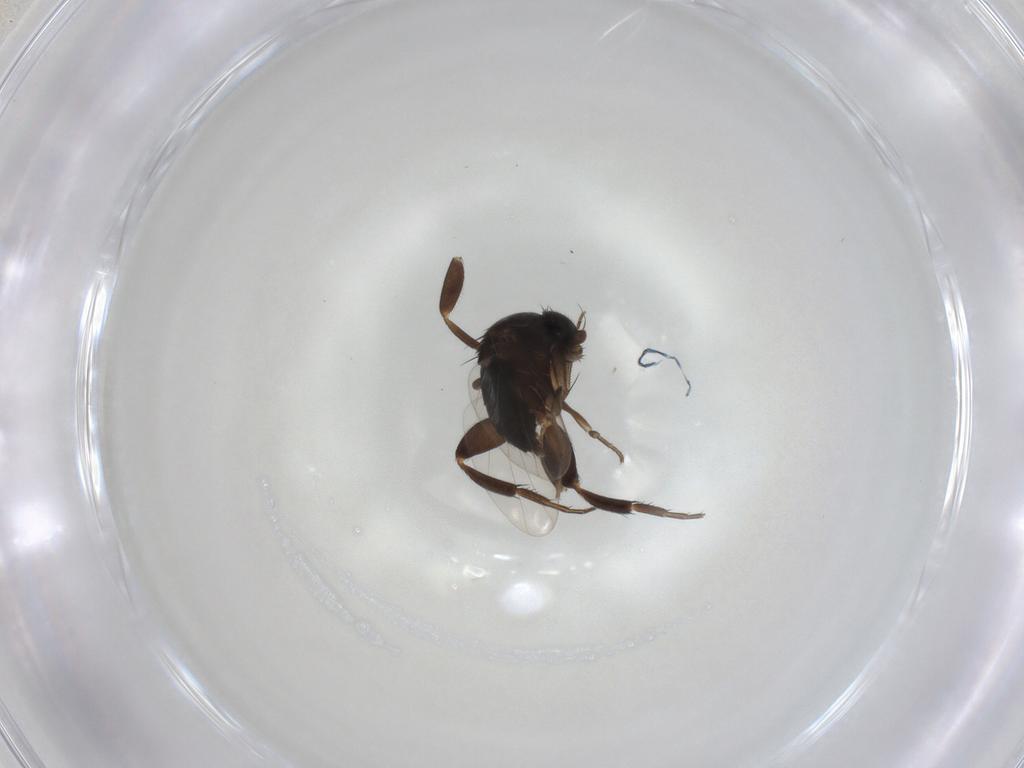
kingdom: Animalia
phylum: Arthropoda
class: Insecta
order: Diptera
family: Phoridae
